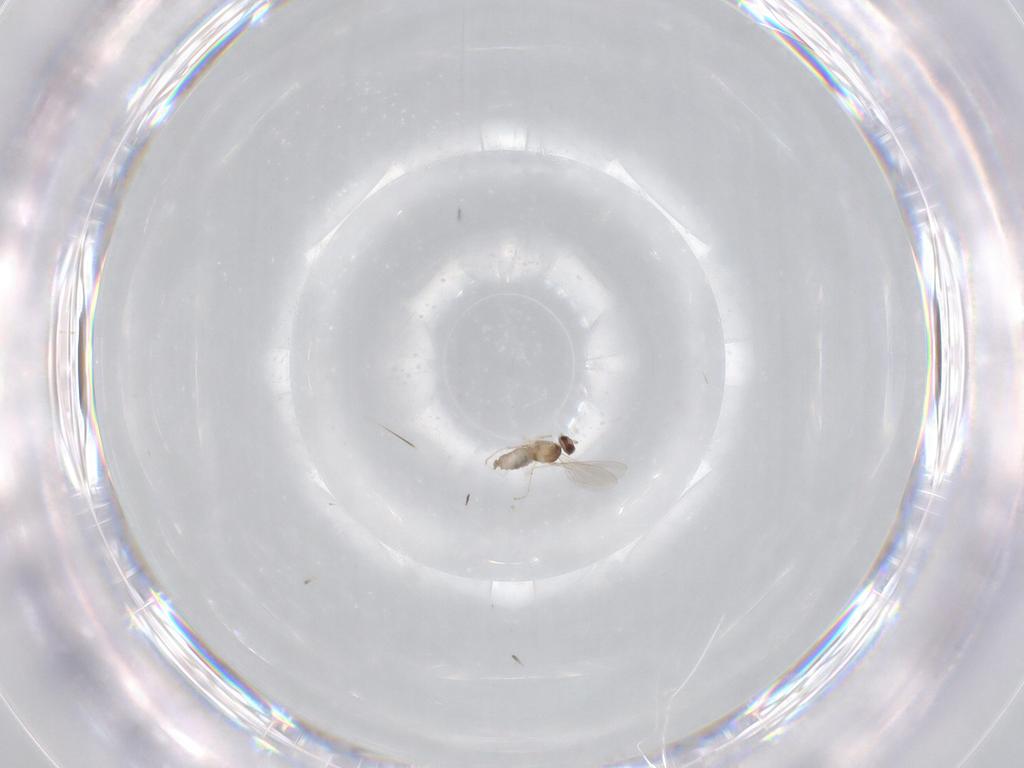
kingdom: Animalia
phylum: Arthropoda
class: Insecta
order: Diptera
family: Cecidomyiidae
